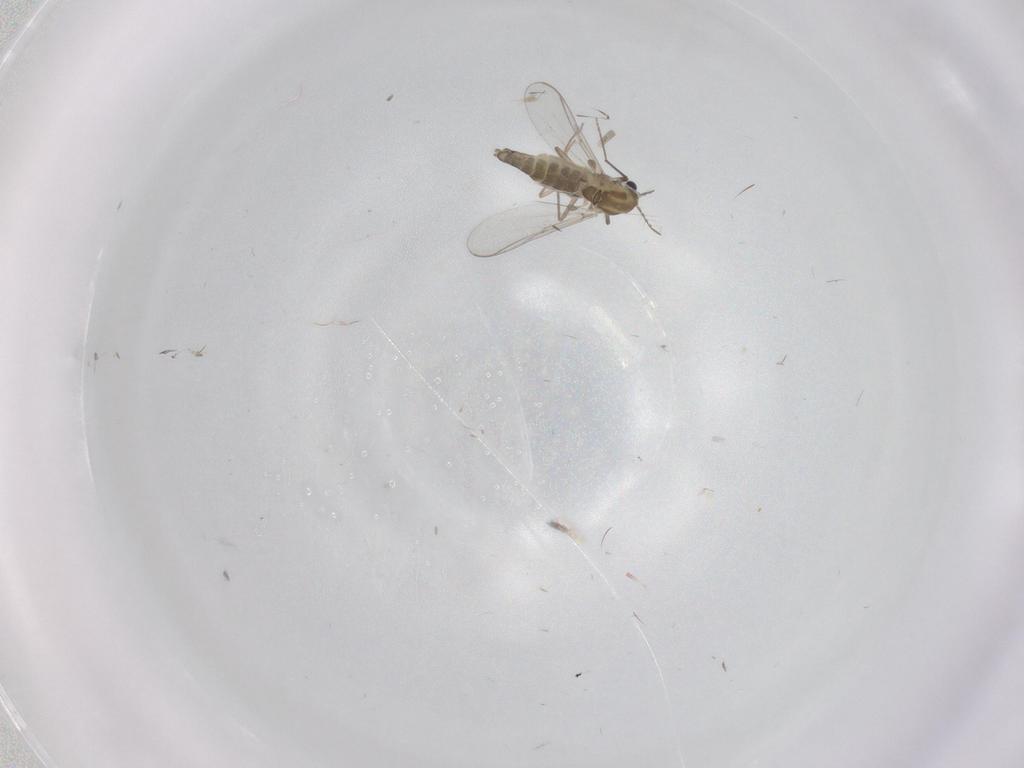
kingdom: Animalia
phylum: Arthropoda
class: Insecta
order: Diptera
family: Chironomidae
